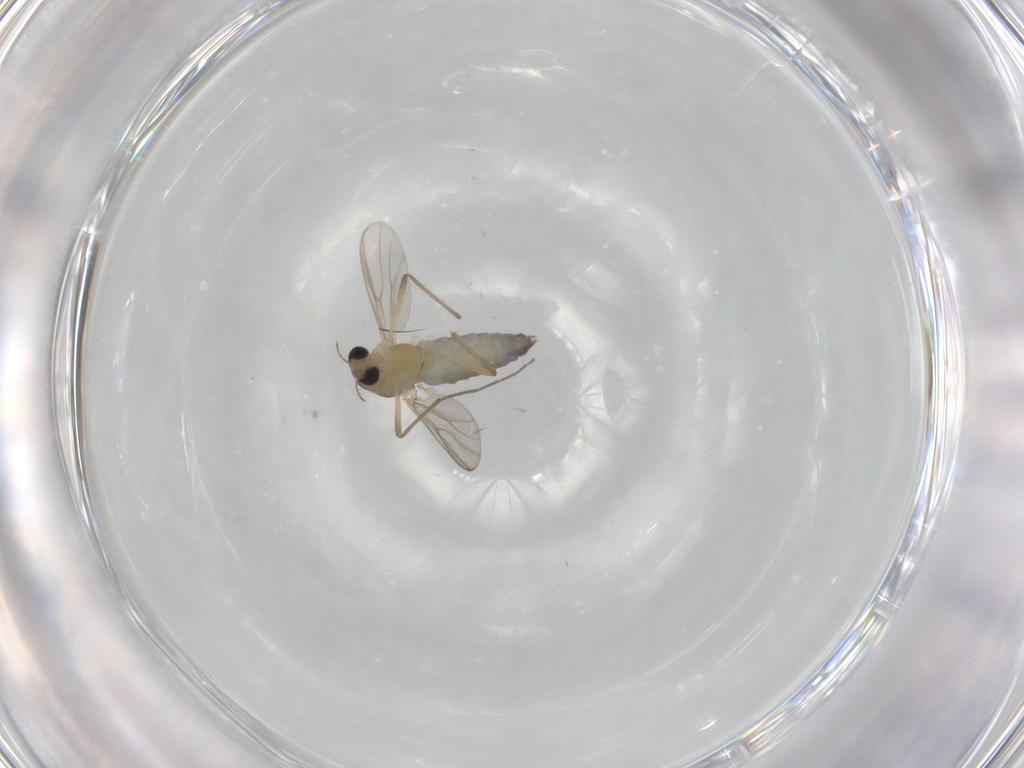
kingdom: Animalia
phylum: Arthropoda
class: Insecta
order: Diptera
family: Chironomidae
